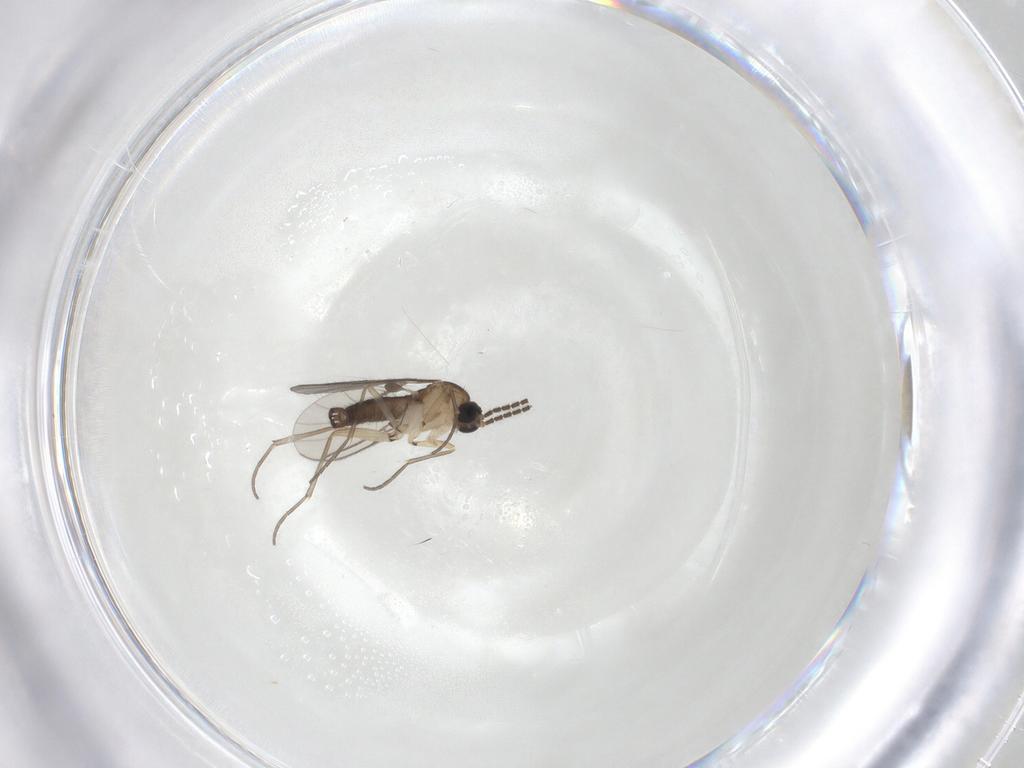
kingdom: Animalia
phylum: Arthropoda
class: Insecta
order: Diptera
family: Sciaridae
